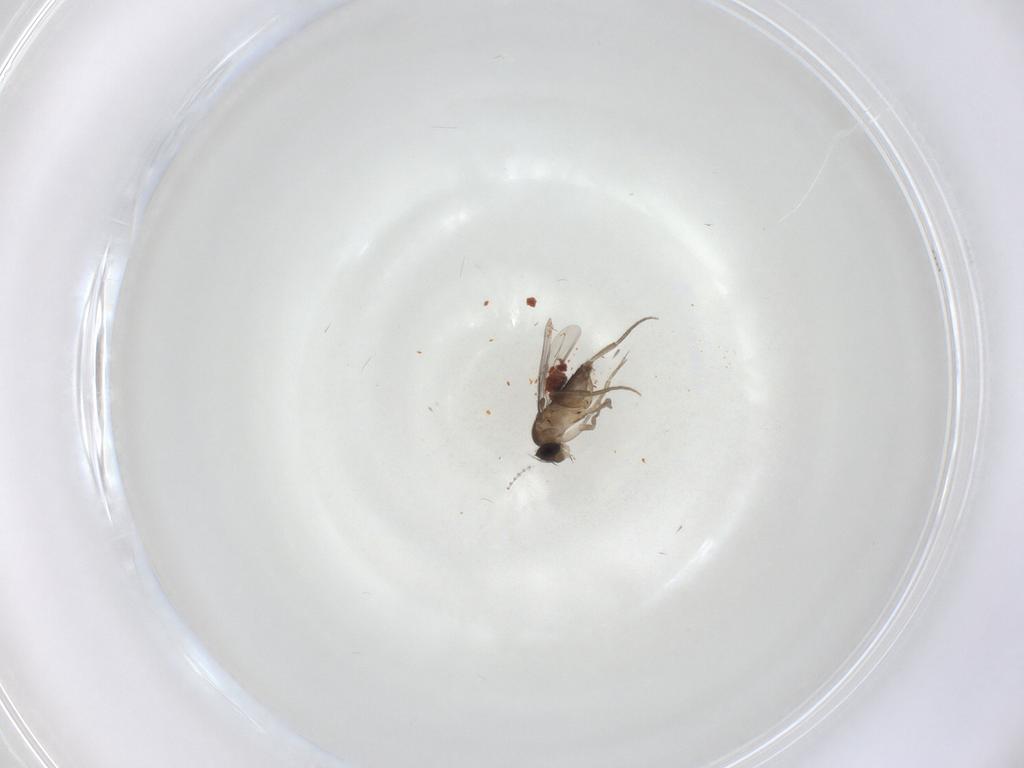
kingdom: Animalia
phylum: Arthropoda
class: Insecta
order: Diptera
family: Phoridae
